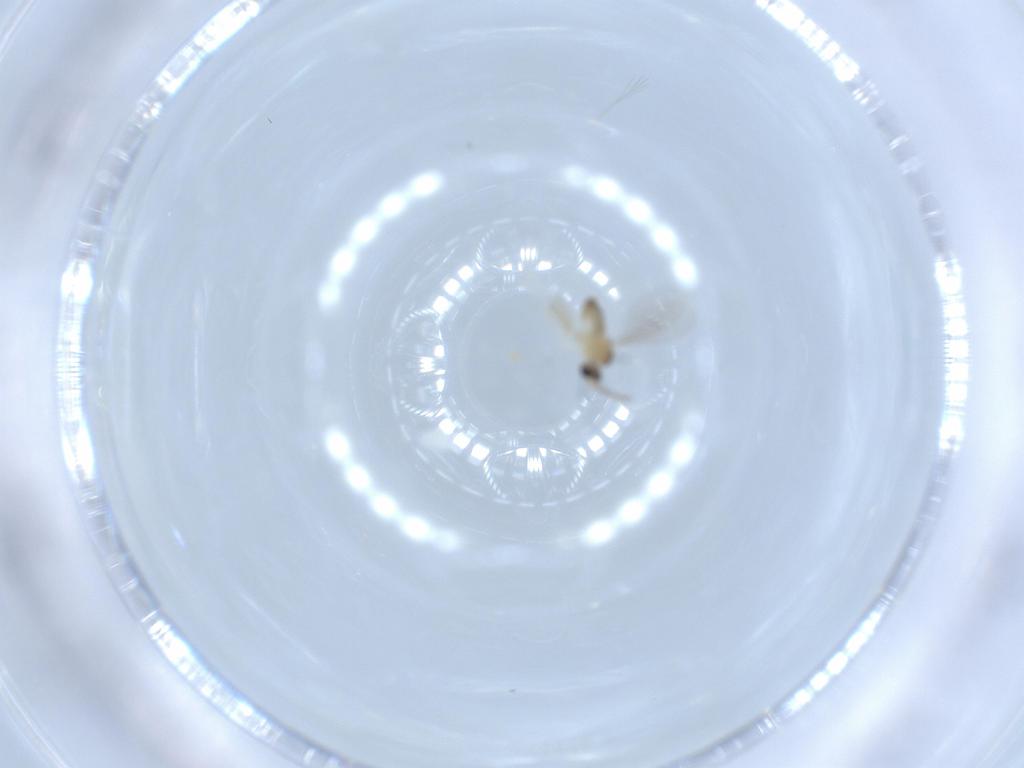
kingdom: Animalia
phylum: Arthropoda
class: Insecta
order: Diptera
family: Cecidomyiidae
